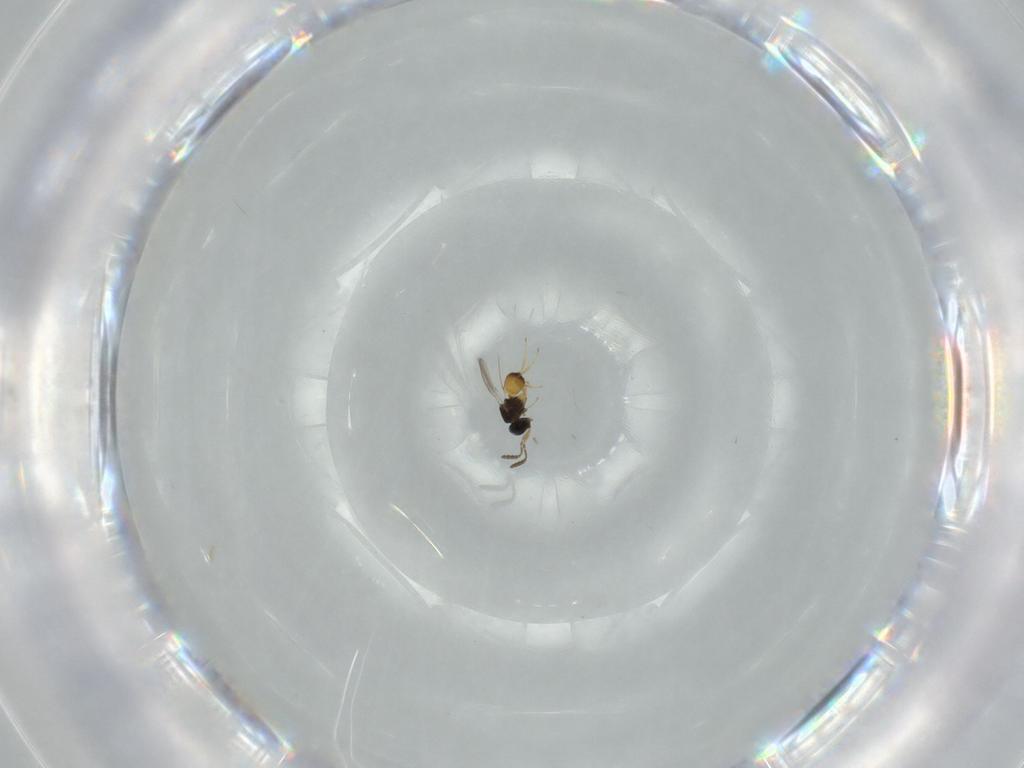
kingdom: Animalia
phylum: Arthropoda
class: Insecta
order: Hymenoptera
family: Scelionidae
